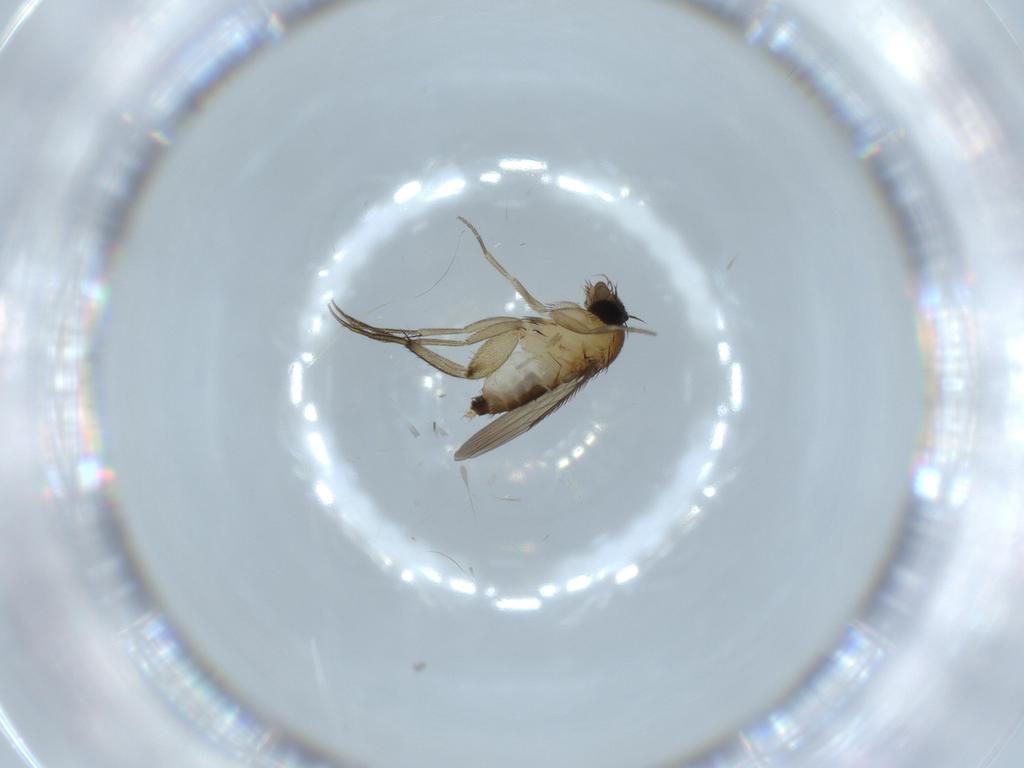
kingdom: Animalia
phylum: Arthropoda
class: Insecta
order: Diptera
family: Phoridae
